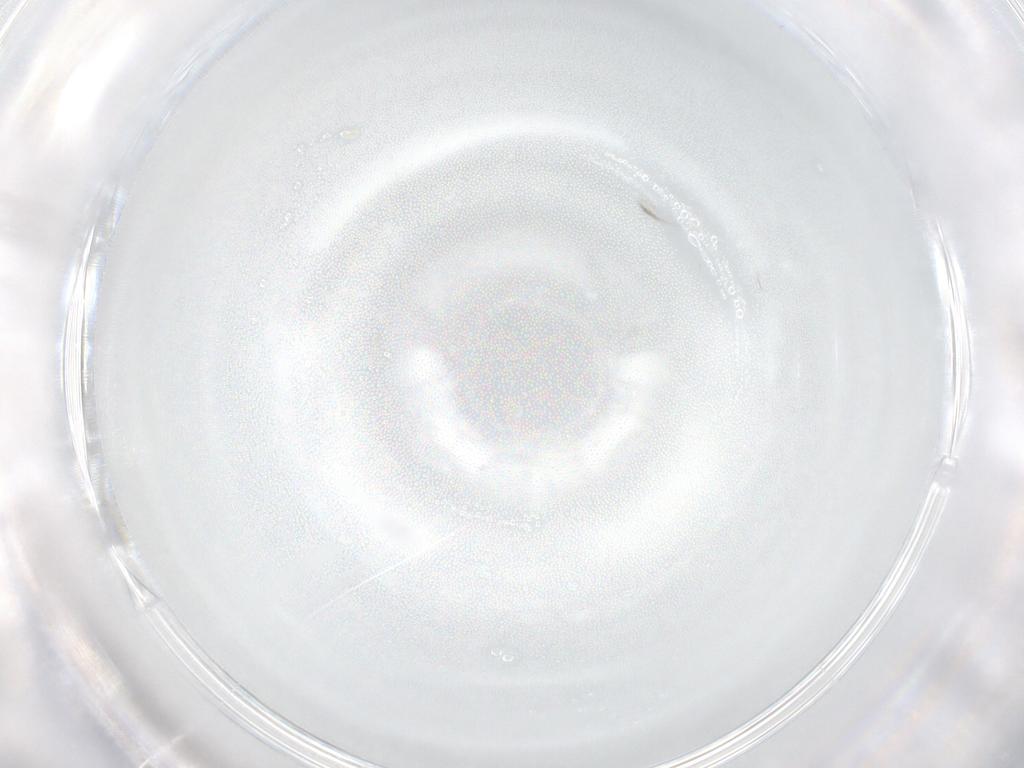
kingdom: Animalia
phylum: Arthropoda
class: Insecta
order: Diptera
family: Phoridae
